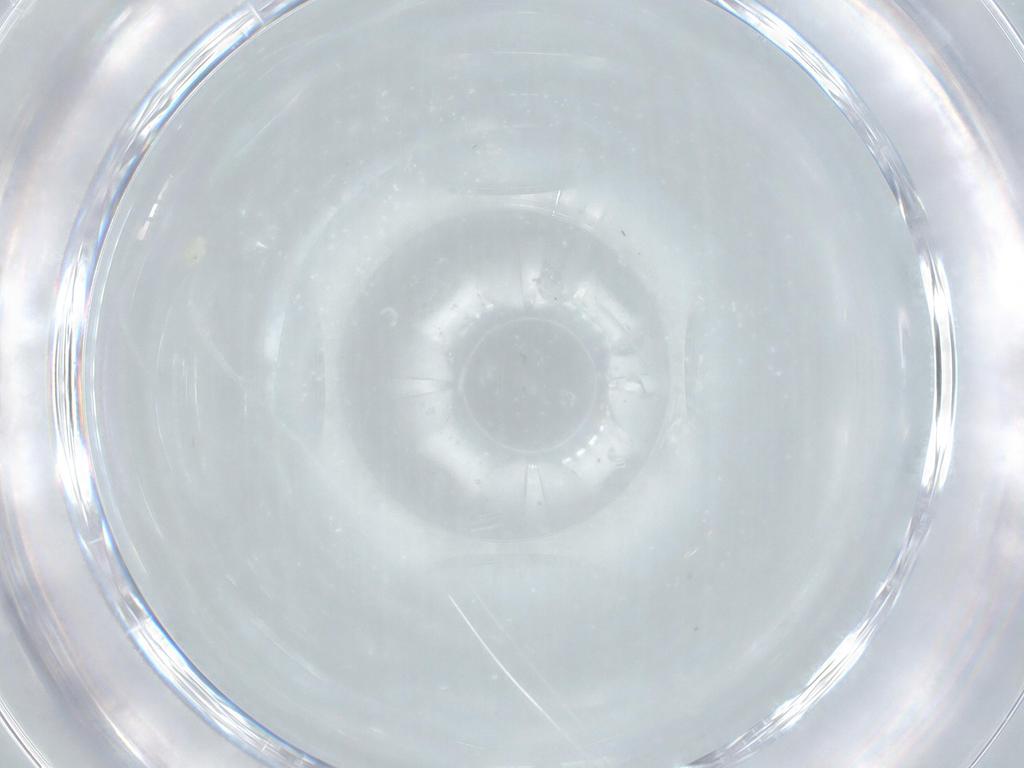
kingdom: Animalia
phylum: Arthropoda
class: Insecta
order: Diptera
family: Chironomidae
